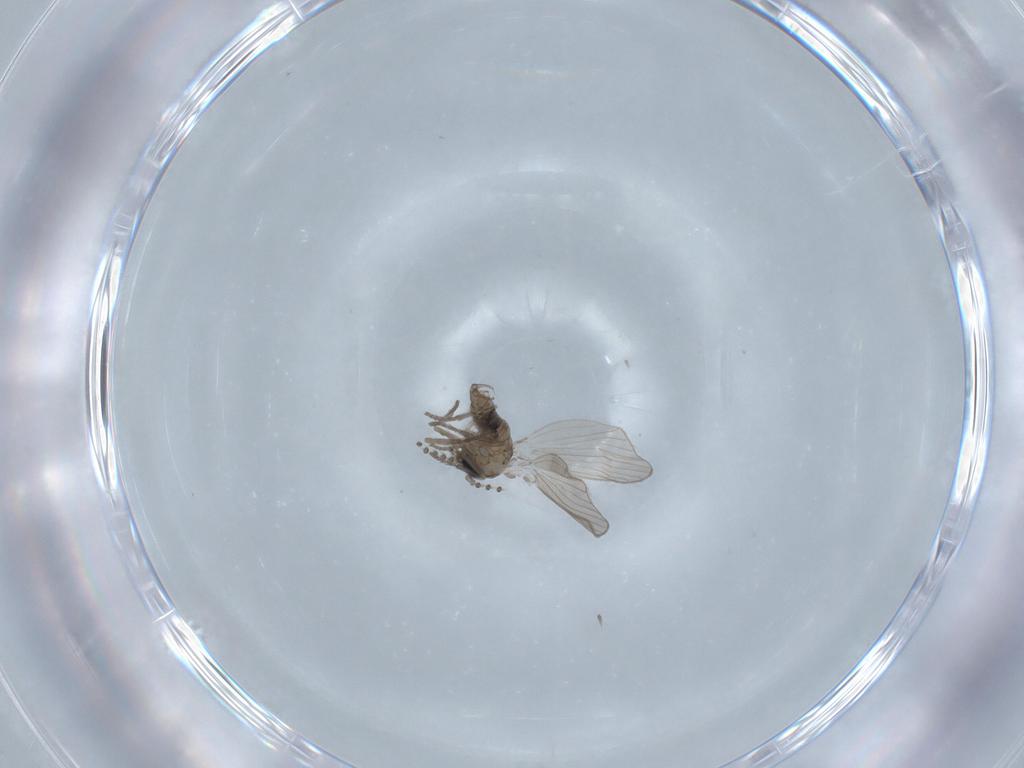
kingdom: Animalia
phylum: Arthropoda
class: Insecta
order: Diptera
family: Psychodidae
